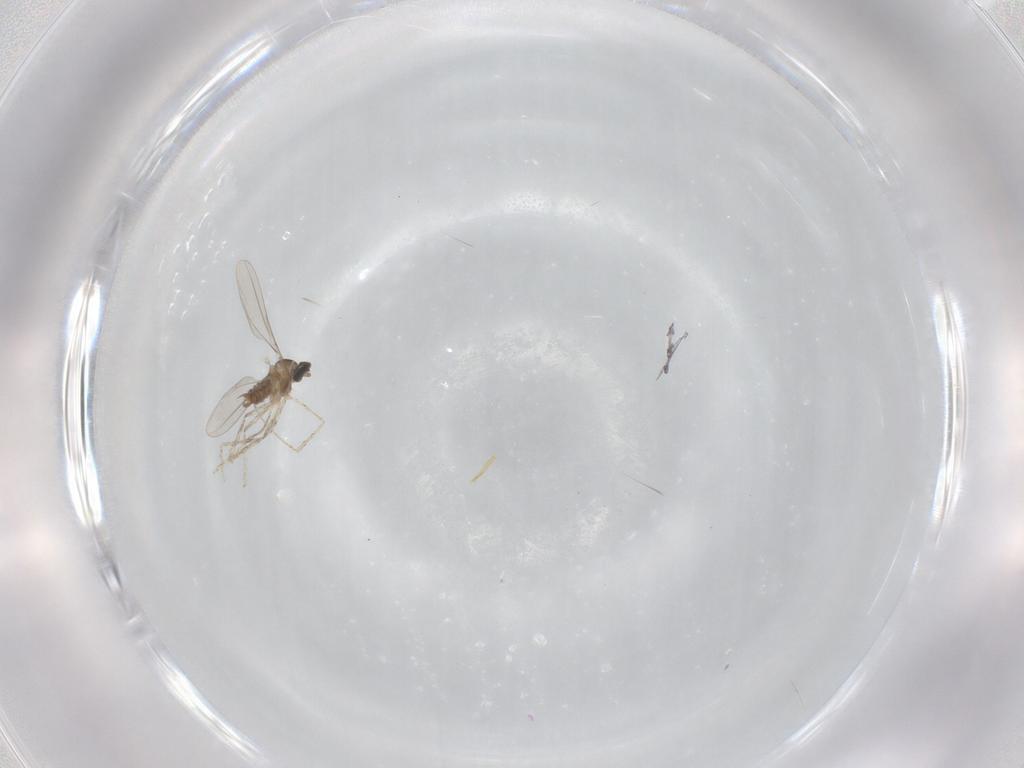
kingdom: Animalia
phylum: Arthropoda
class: Insecta
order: Diptera
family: Cecidomyiidae
